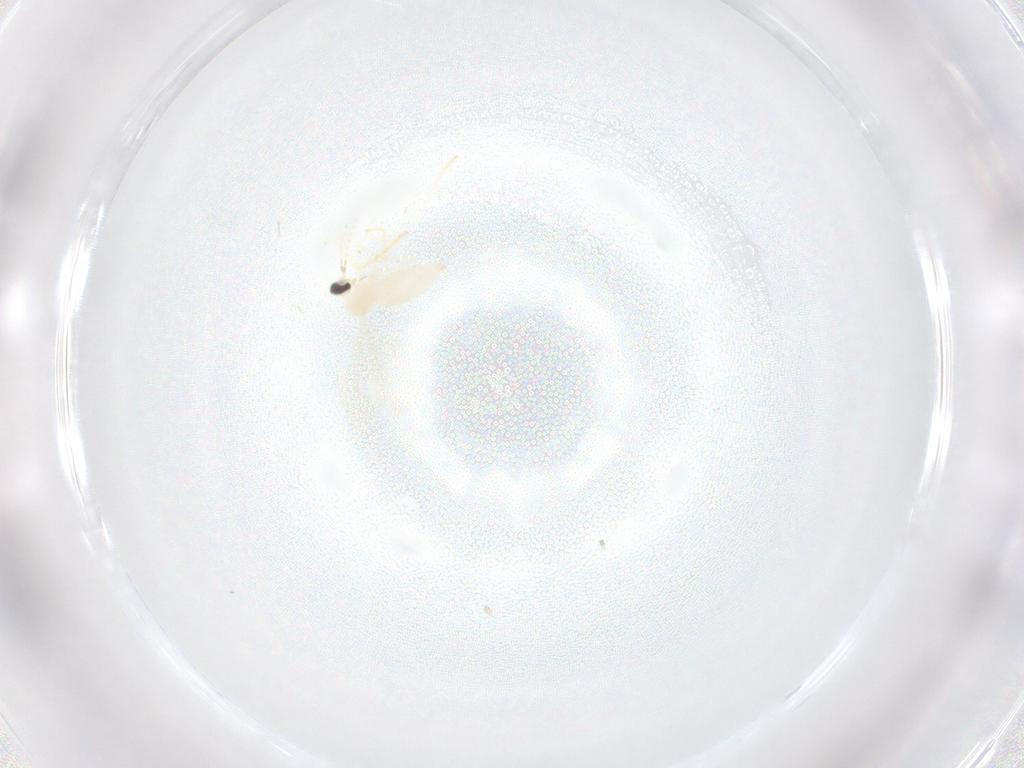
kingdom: Animalia
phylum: Arthropoda
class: Insecta
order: Diptera
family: Cecidomyiidae
